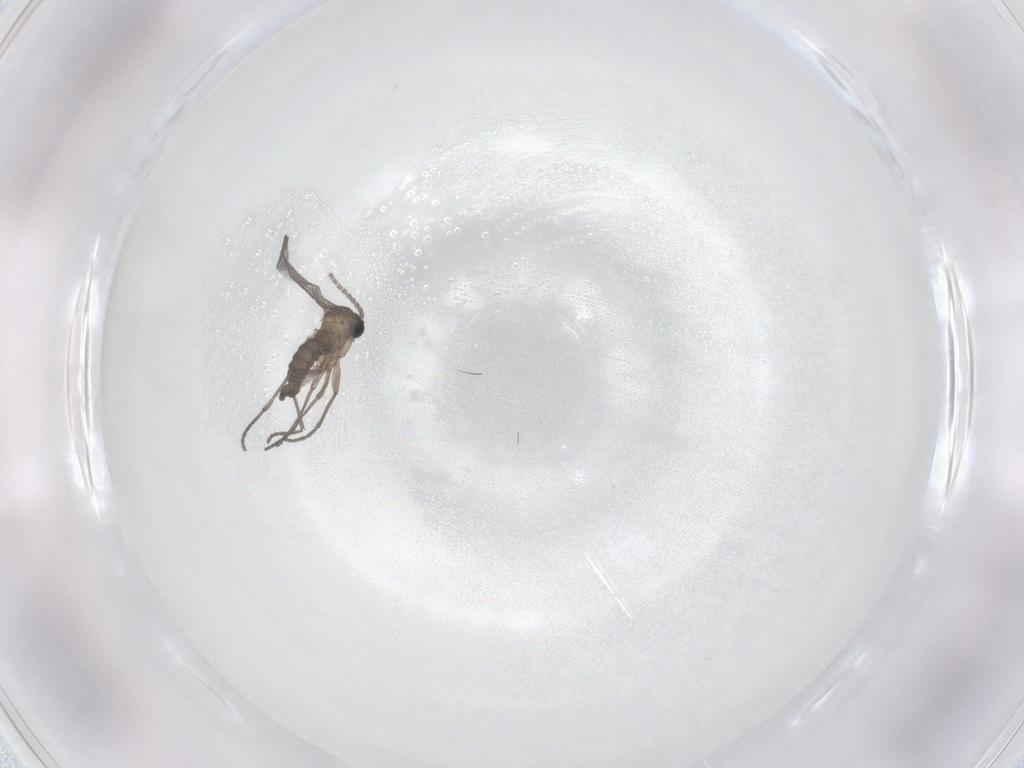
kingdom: Animalia
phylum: Arthropoda
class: Insecta
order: Diptera
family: Sciaridae
